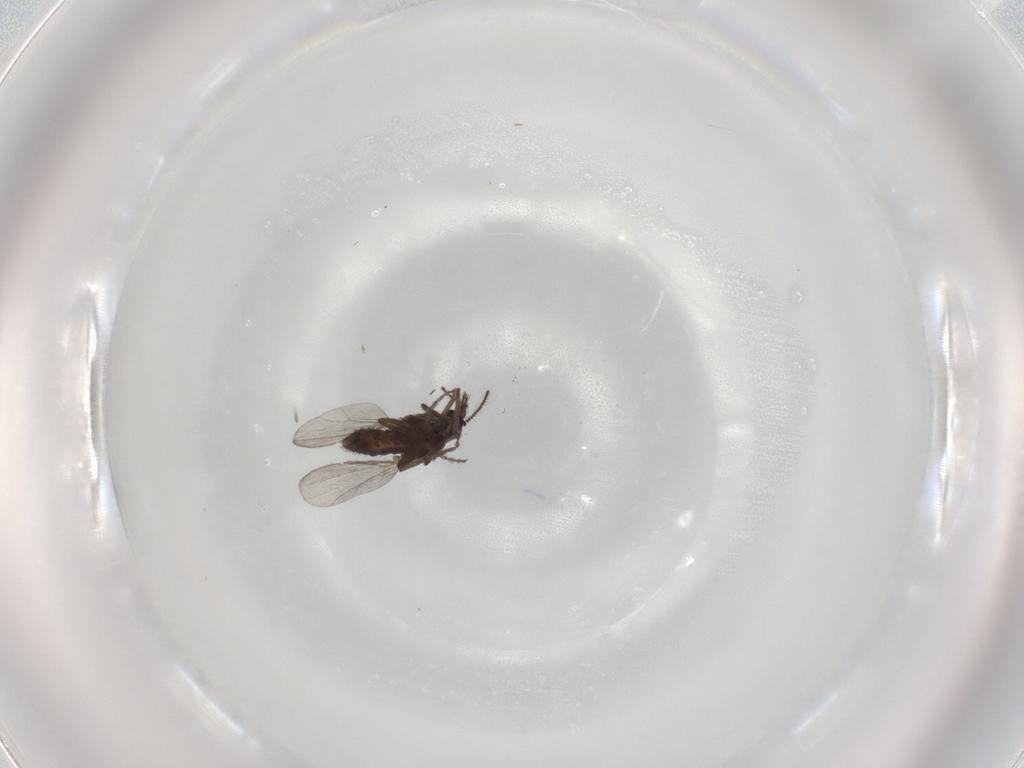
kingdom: Animalia
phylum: Arthropoda
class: Insecta
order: Diptera
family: Ceratopogonidae
